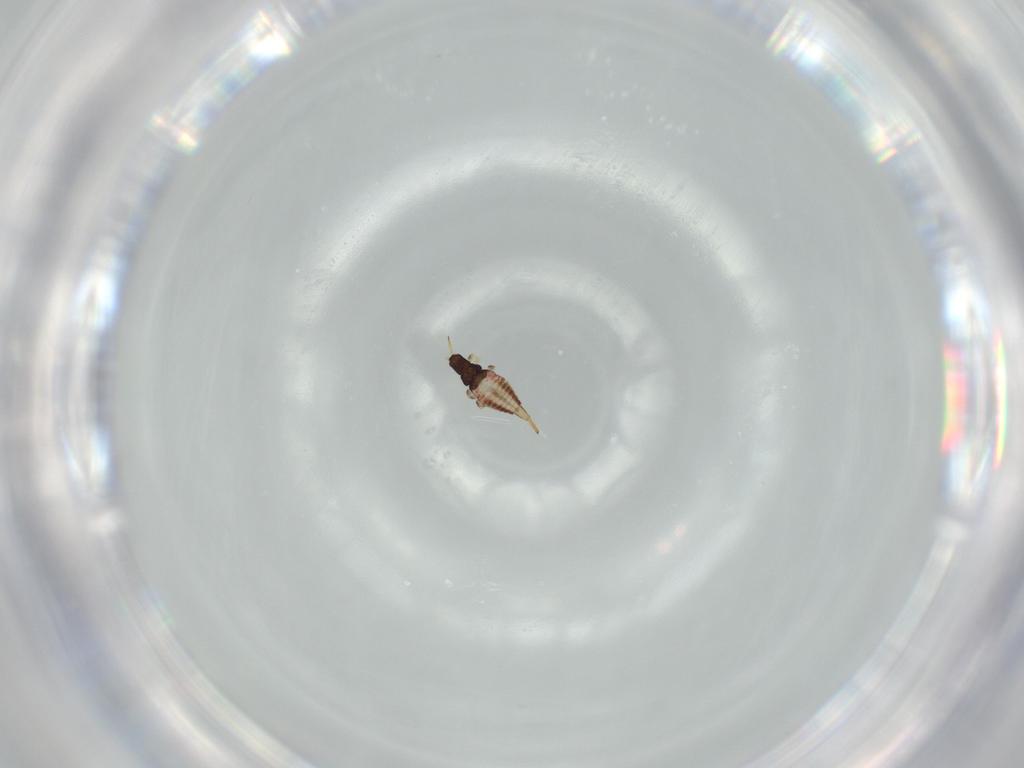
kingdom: Animalia
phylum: Arthropoda
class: Insecta
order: Thysanoptera
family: Phlaeothripidae
